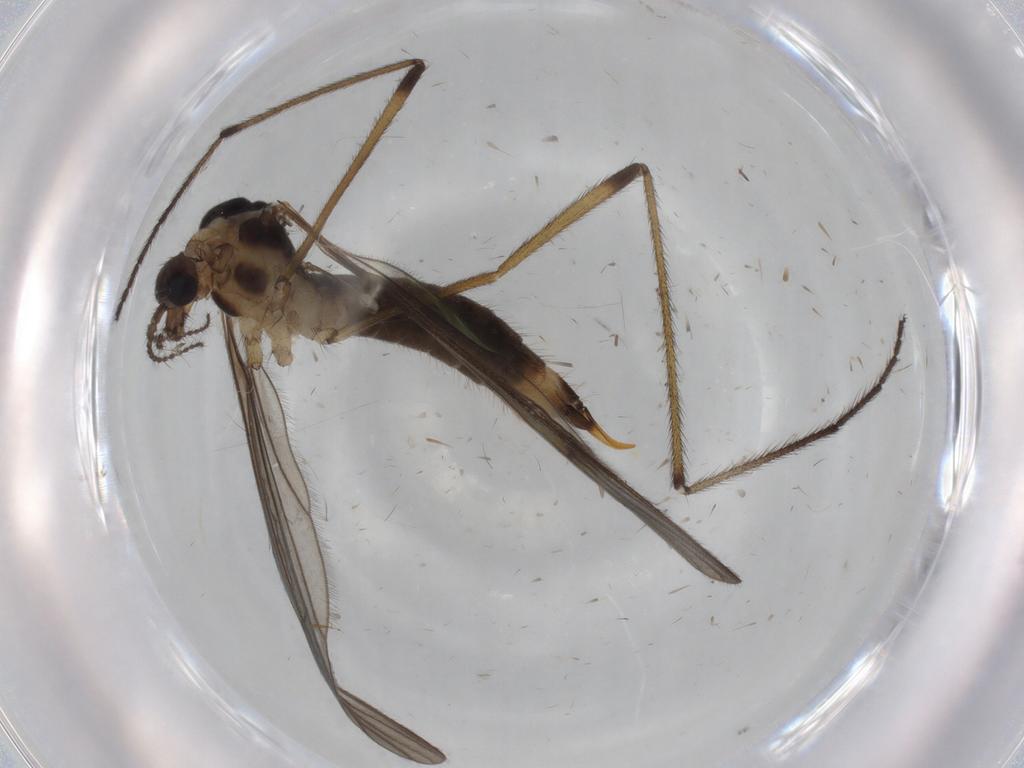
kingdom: Animalia
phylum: Arthropoda
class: Insecta
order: Diptera
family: Limoniidae
